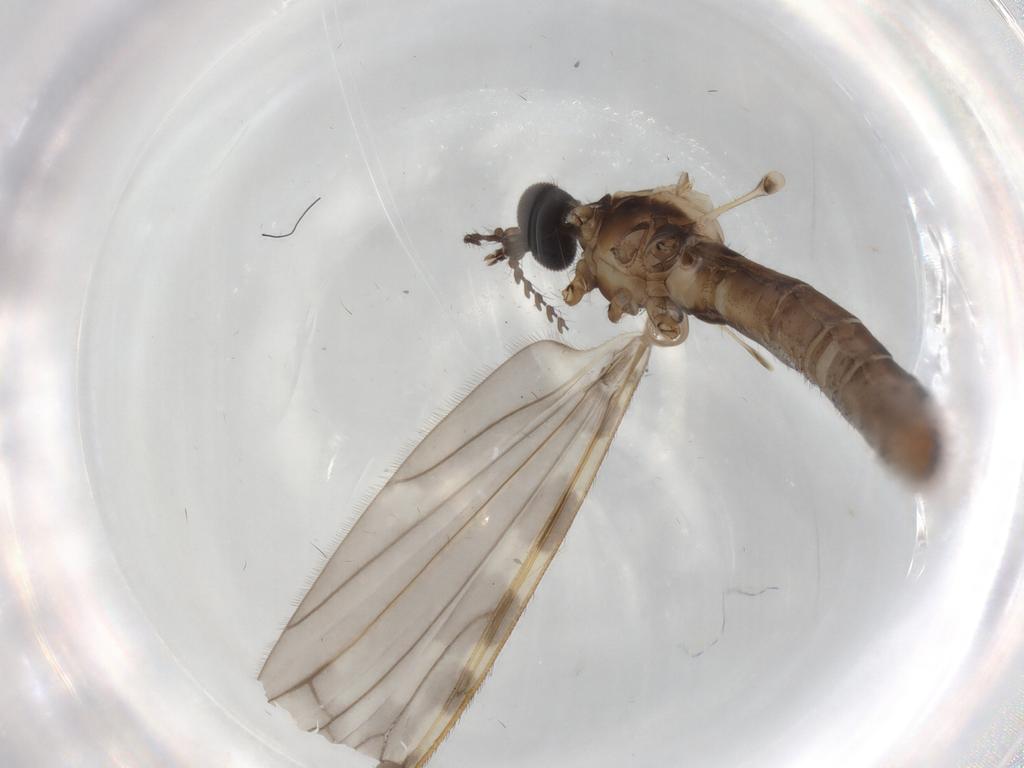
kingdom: Animalia
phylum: Arthropoda
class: Insecta
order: Diptera
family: Limoniidae
